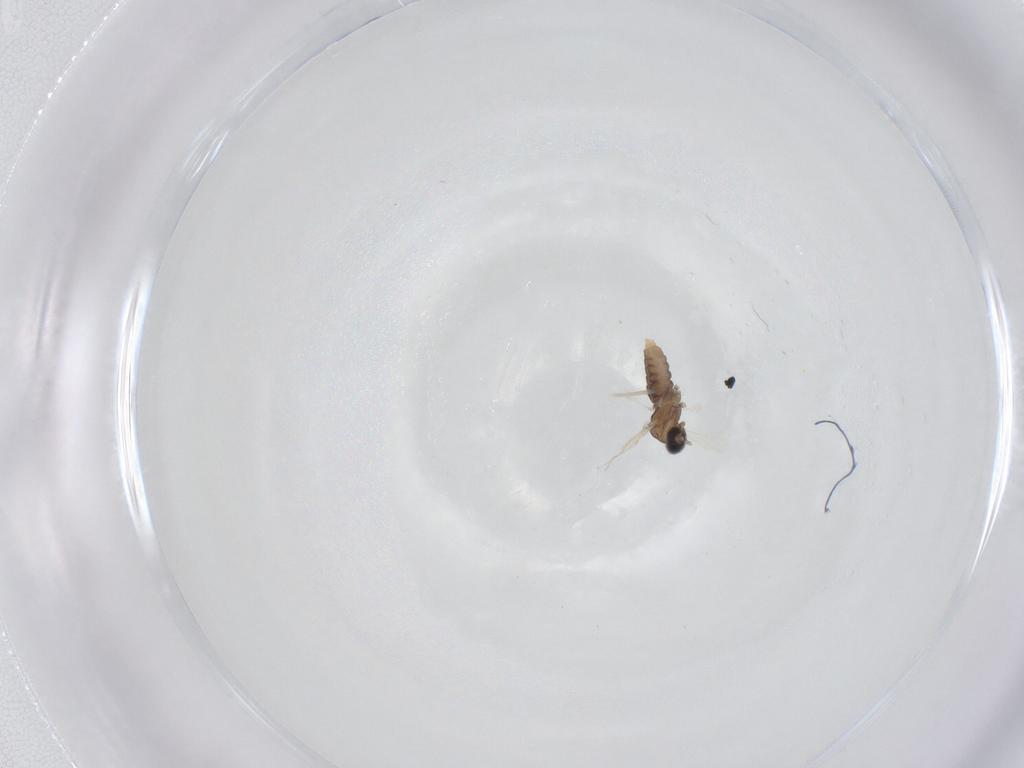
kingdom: Animalia
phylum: Arthropoda
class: Insecta
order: Diptera
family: Cecidomyiidae
